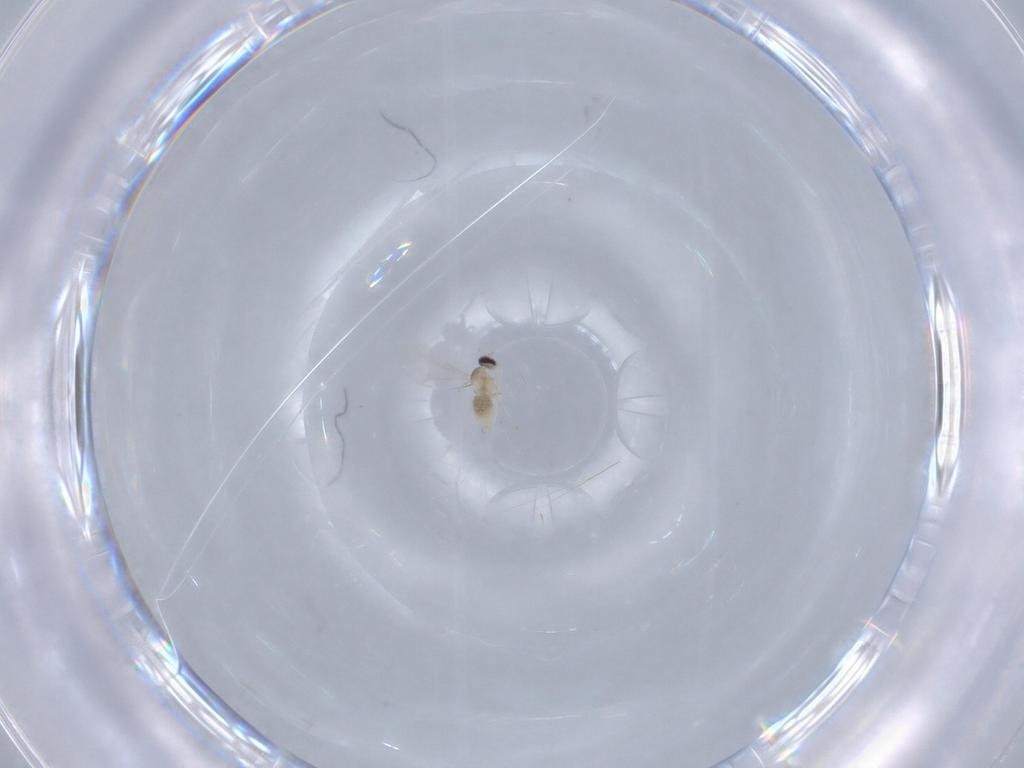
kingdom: Animalia
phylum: Arthropoda
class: Insecta
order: Diptera
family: Cecidomyiidae
